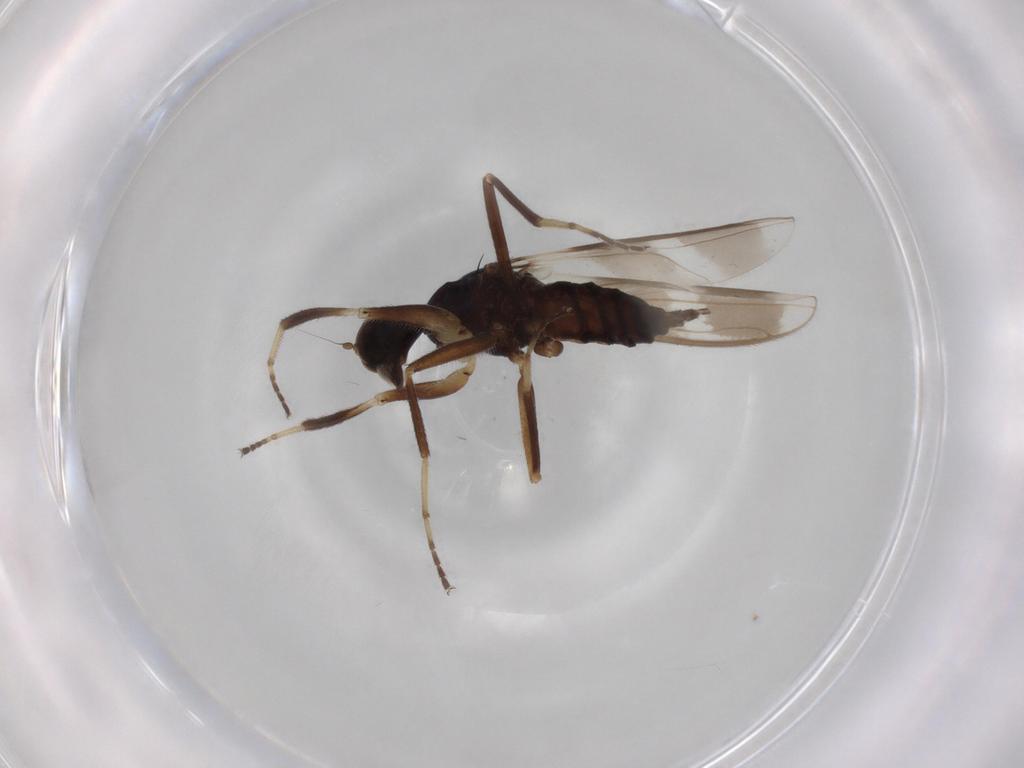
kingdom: Animalia
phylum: Arthropoda
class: Insecta
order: Diptera
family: Hybotidae
